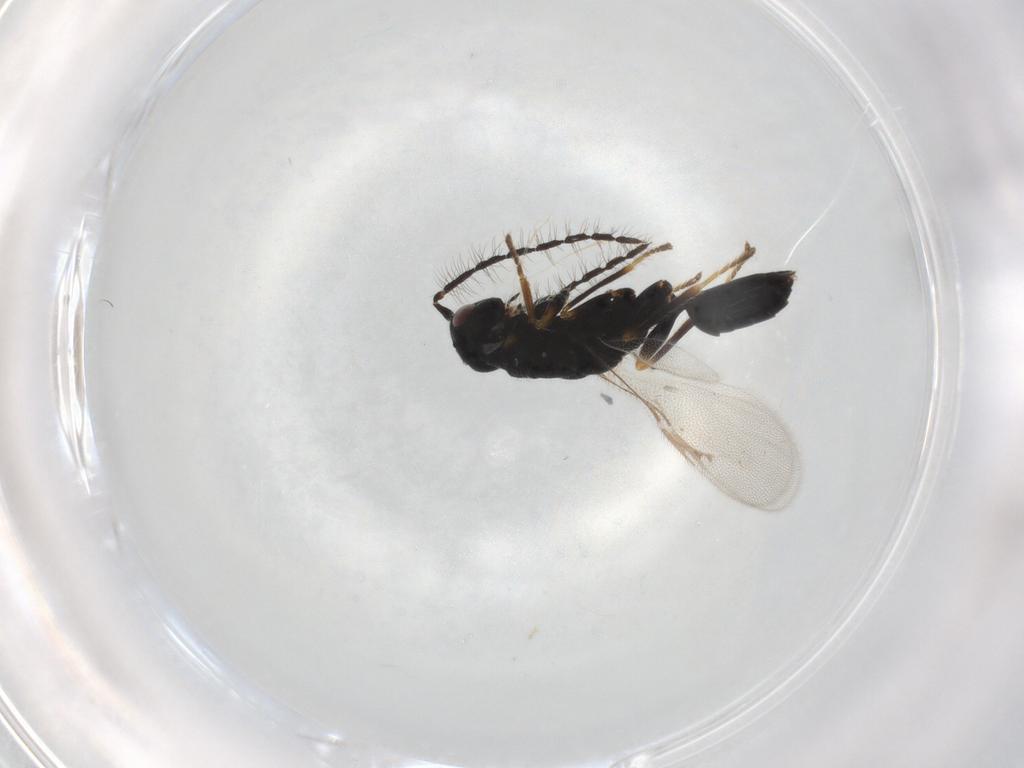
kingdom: Animalia
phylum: Arthropoda
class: Insecta
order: Hymenoptera
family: Eurytomidae
